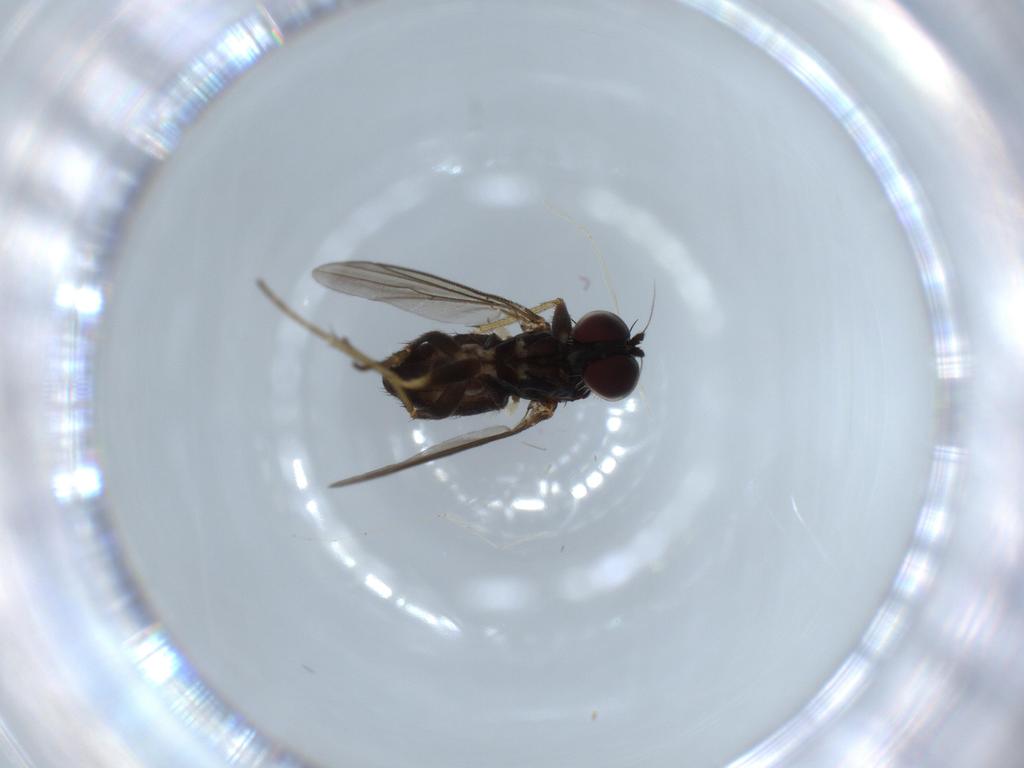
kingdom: Animalia
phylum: Arthropoda
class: Insecta
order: Diptera
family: Dolichopodidae
